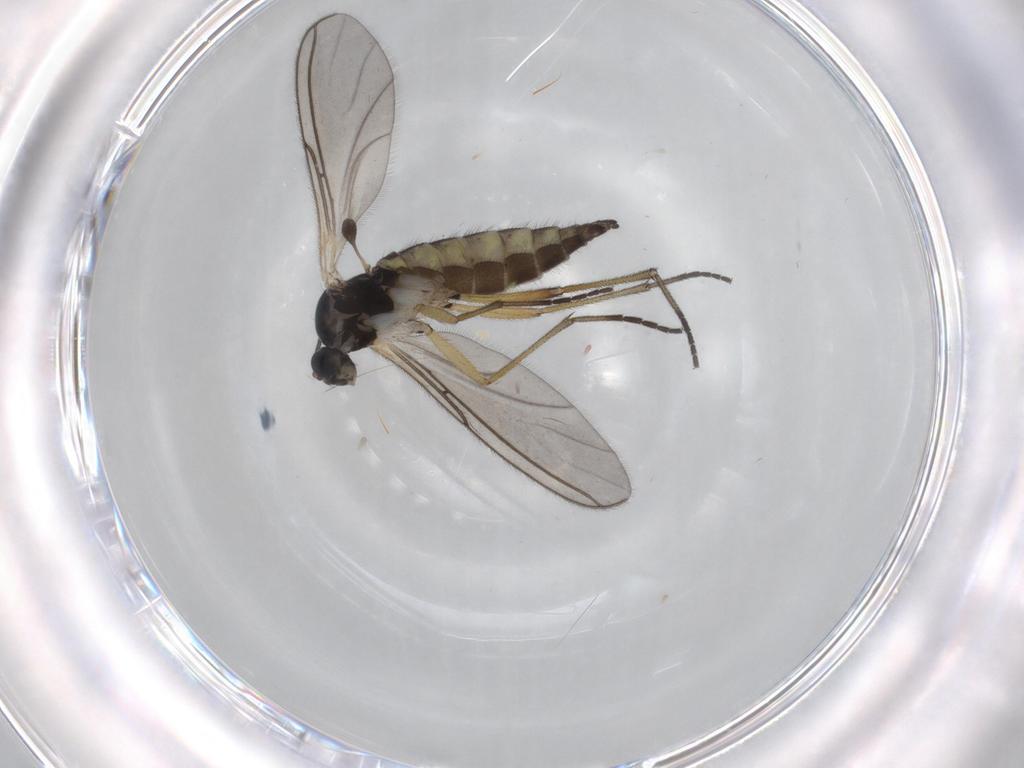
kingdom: Animalia
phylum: Arthropoda
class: Insecta
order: Diptera
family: Sciaridae
